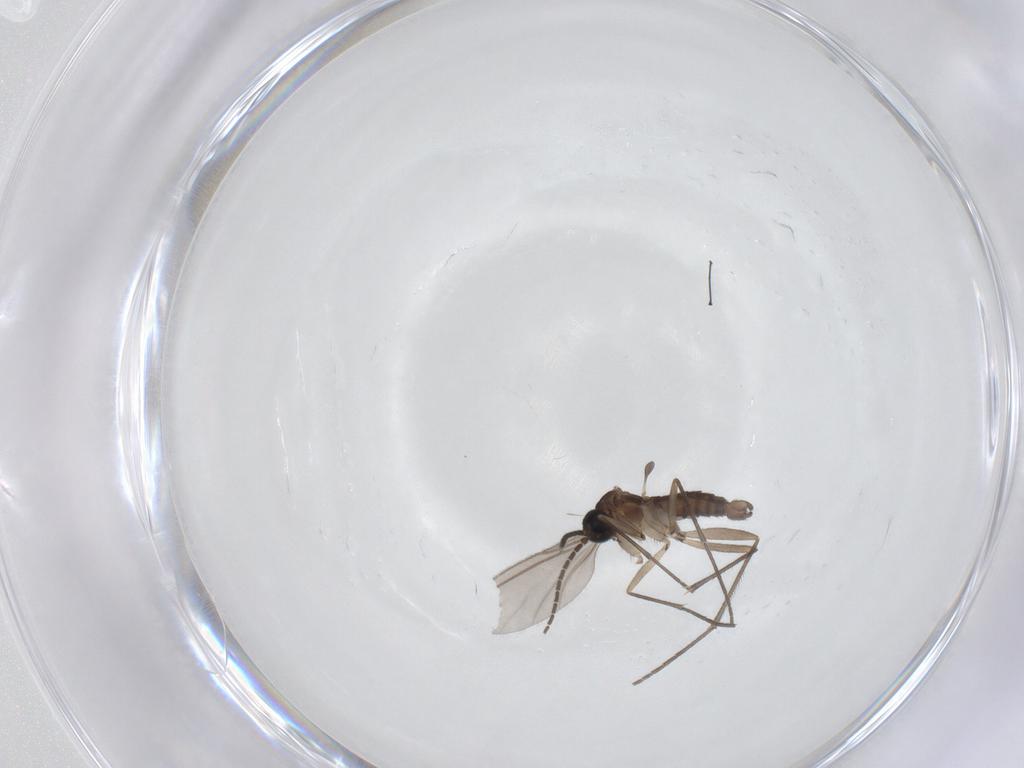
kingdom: Animalia
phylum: Arthropoda
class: Insecta
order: Diptera
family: Ceratopogonidae
